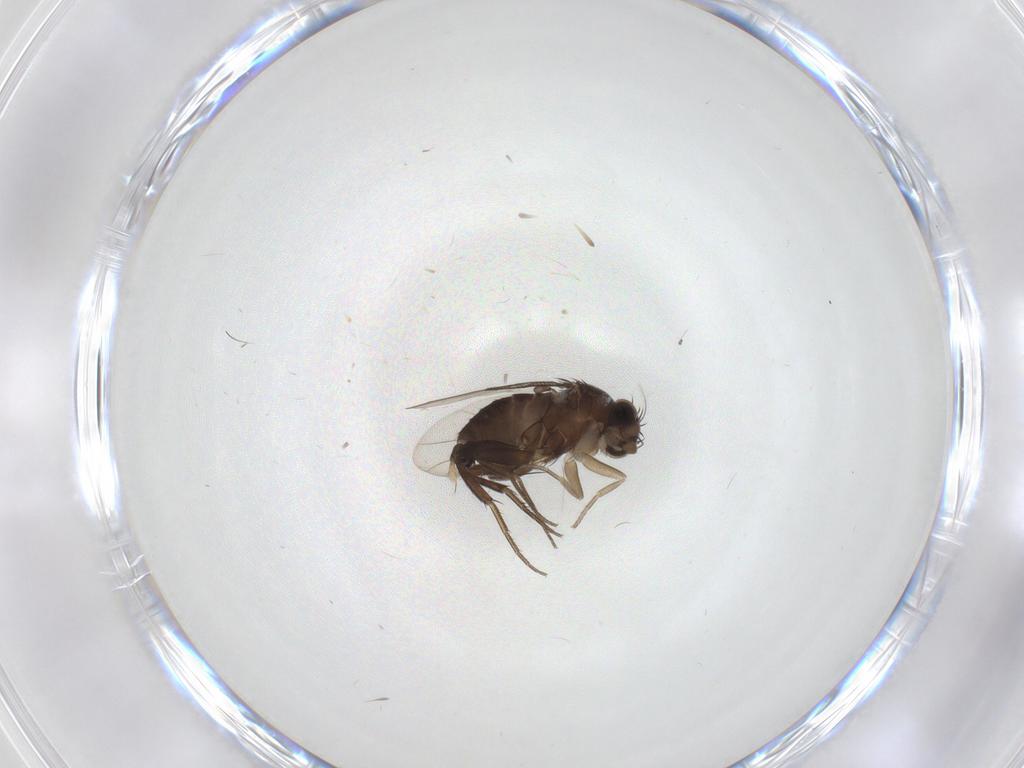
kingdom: Animalia
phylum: Arthropoda
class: Insecta
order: Diptera
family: Phoridae
